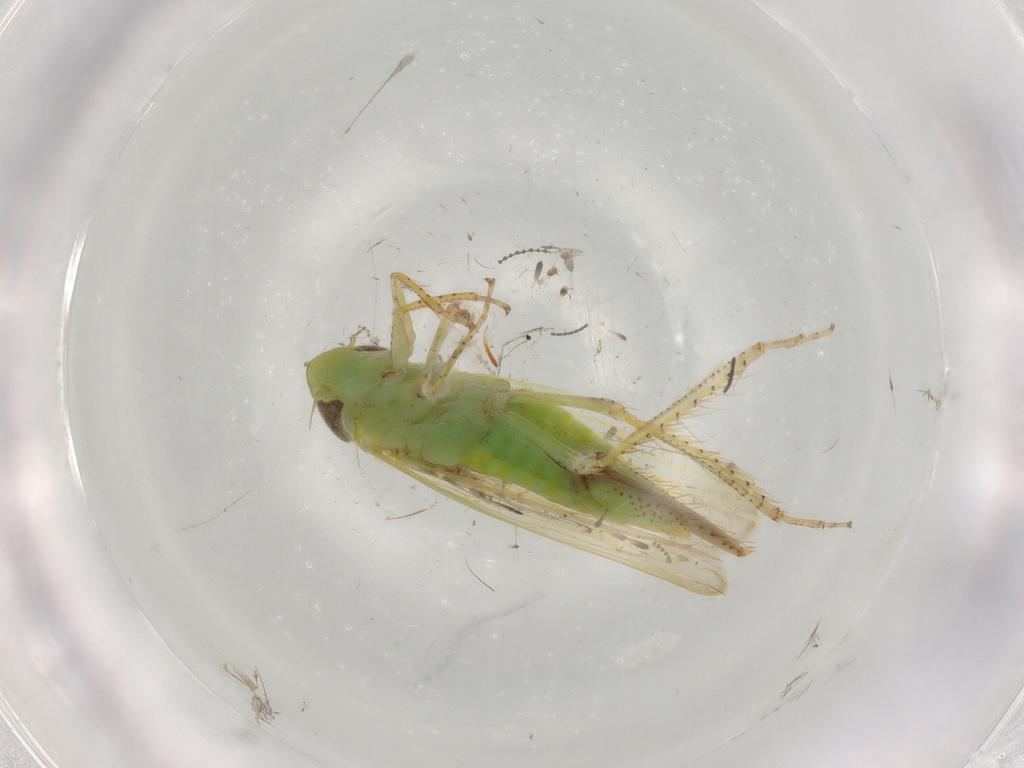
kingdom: Animalia
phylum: Arthropoda
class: Insecta
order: Hemiptera
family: Cicadellidae
